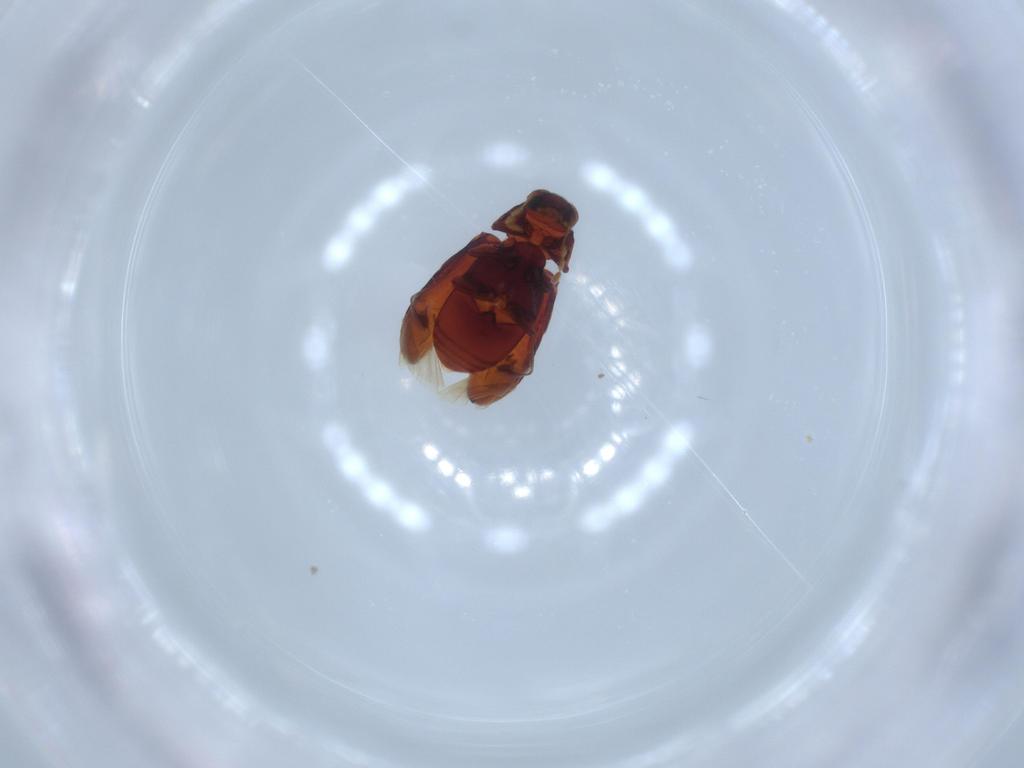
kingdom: Animalia
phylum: Arthropoda
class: Insecta
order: Coleoptera
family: Ptinidae
